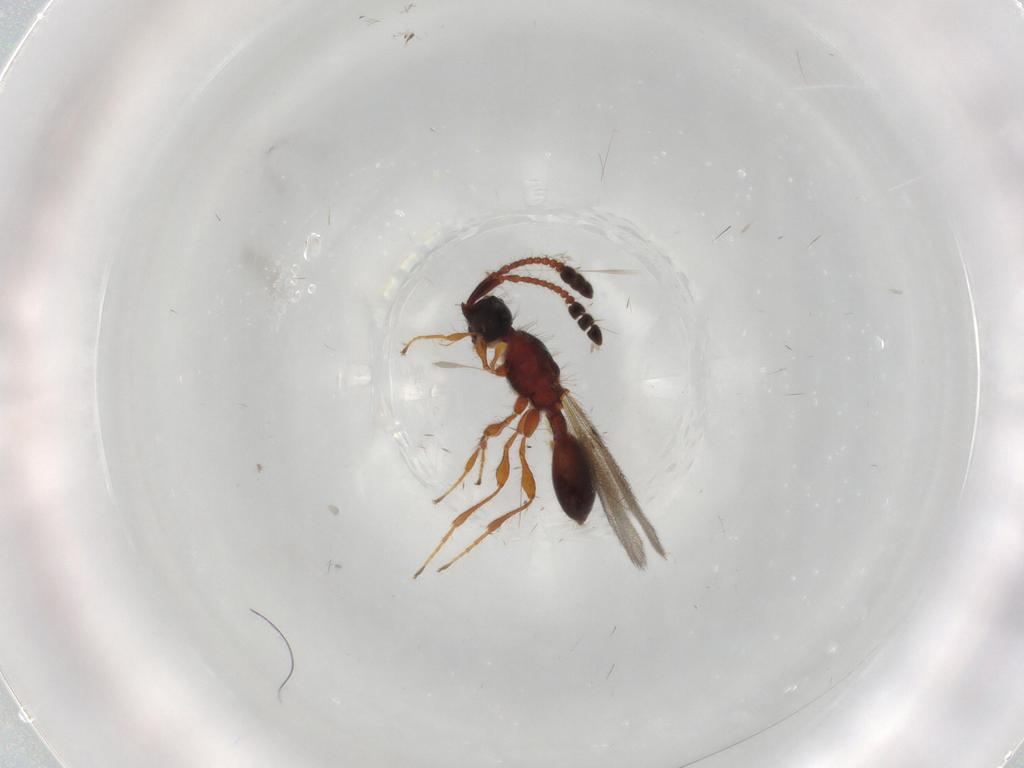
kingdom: Animalia
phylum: Arthropoda
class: Insecta
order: Hymenoptera
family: Diapriidae
